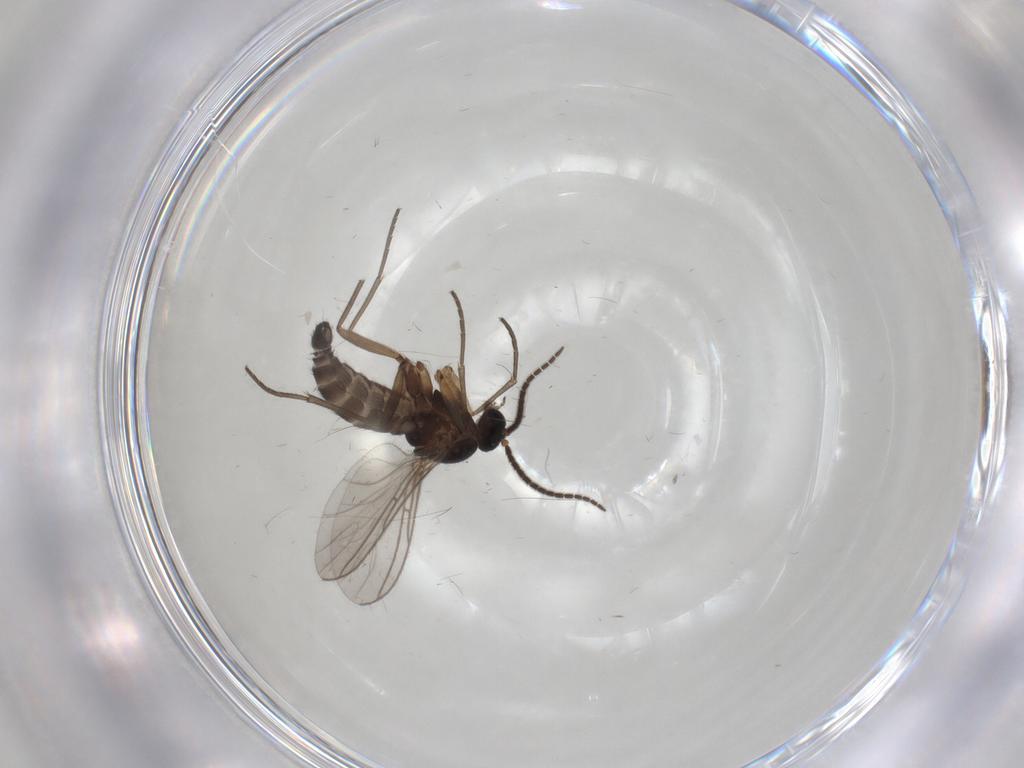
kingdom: Animalia
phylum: Arthropoda
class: Insecta
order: Diptera
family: Sciaridae
